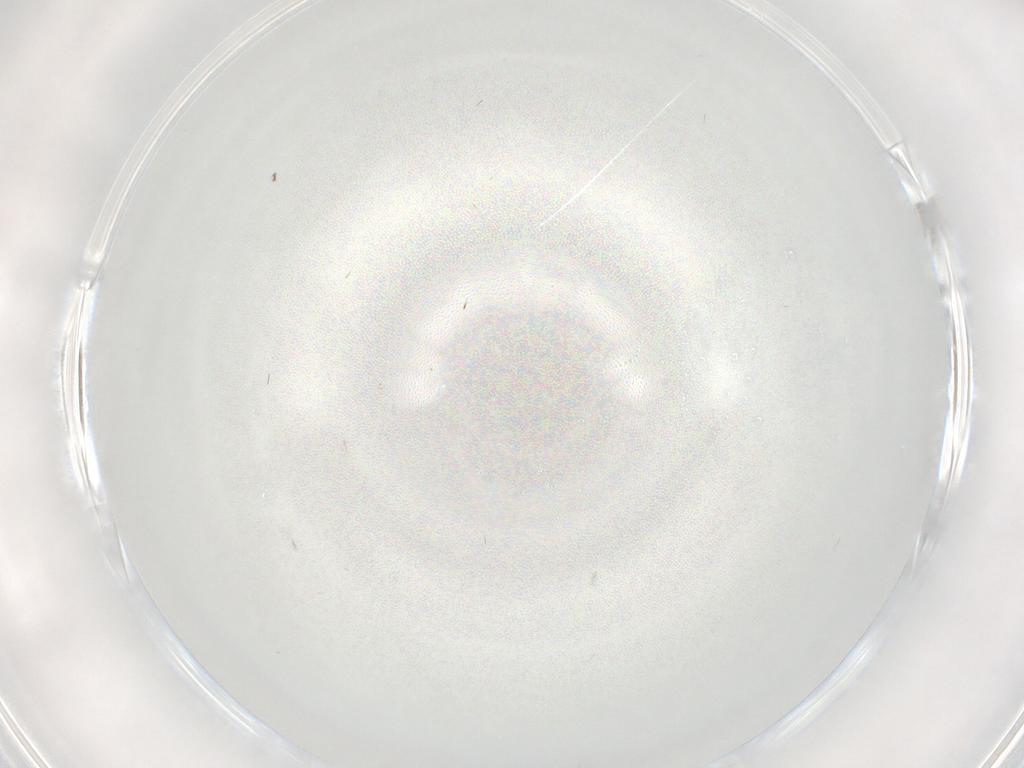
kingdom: Animalia
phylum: Arthropoda
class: Insecta
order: Diptera
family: Chironomidae
